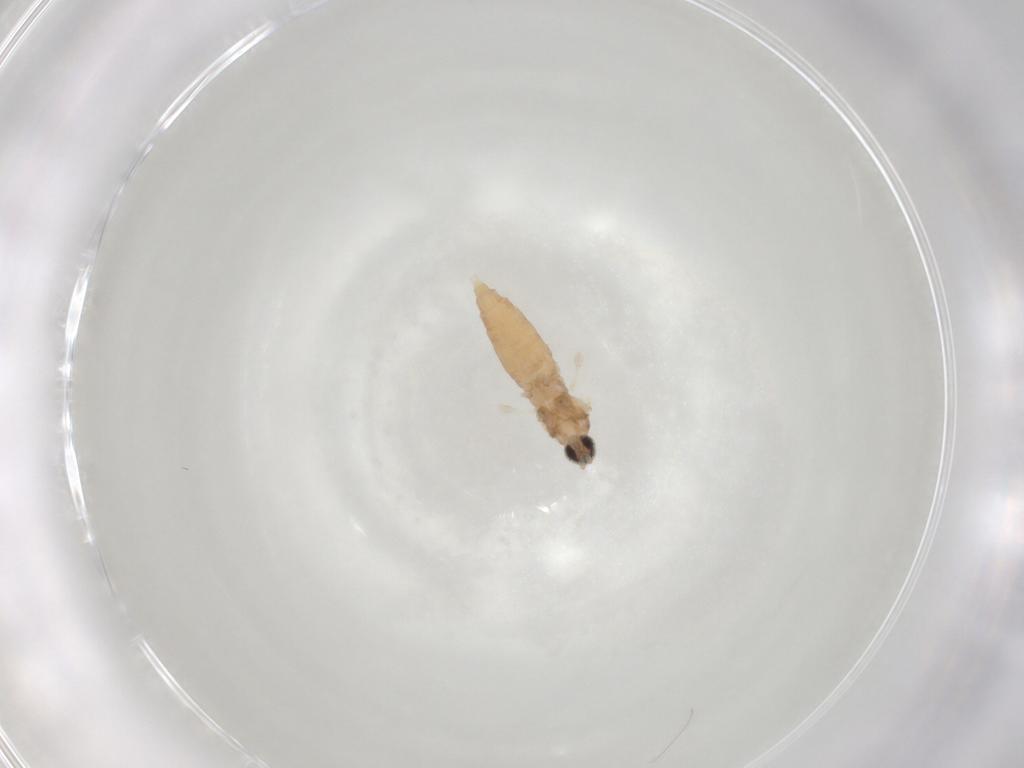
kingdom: Animalia
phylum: Arthropoda
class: Insecta
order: Diptera
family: Cecidomyiidae
